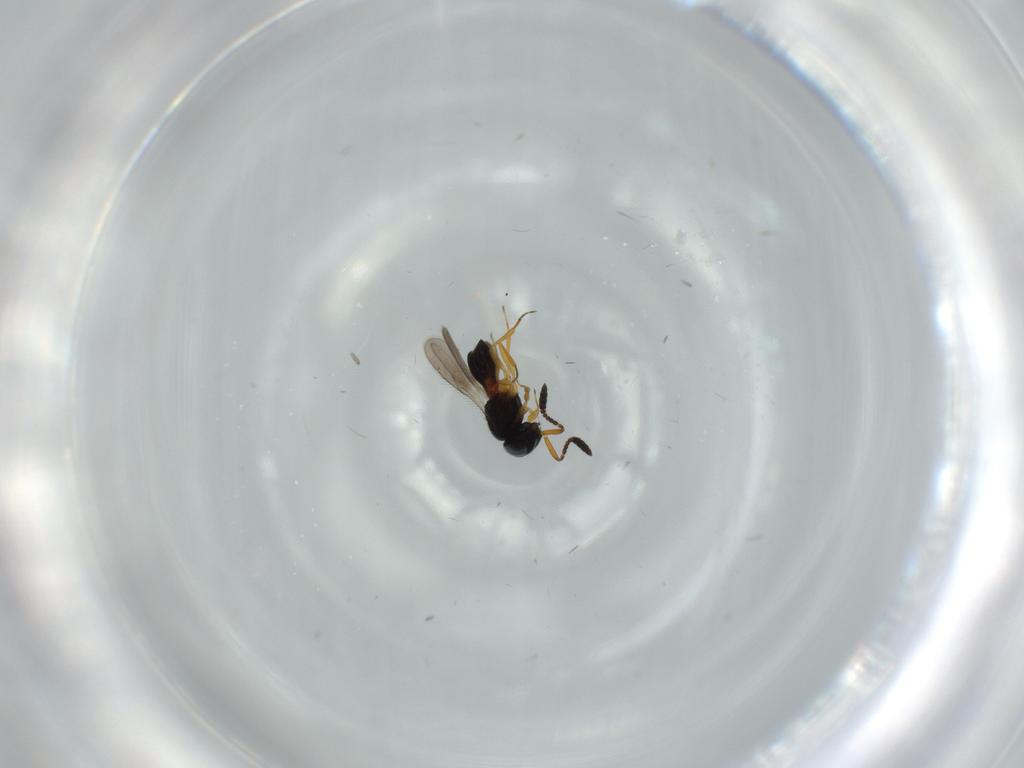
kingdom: Animalia
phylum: Arthropoda
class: Insecta
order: Hymenoptera
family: Scelionidae
